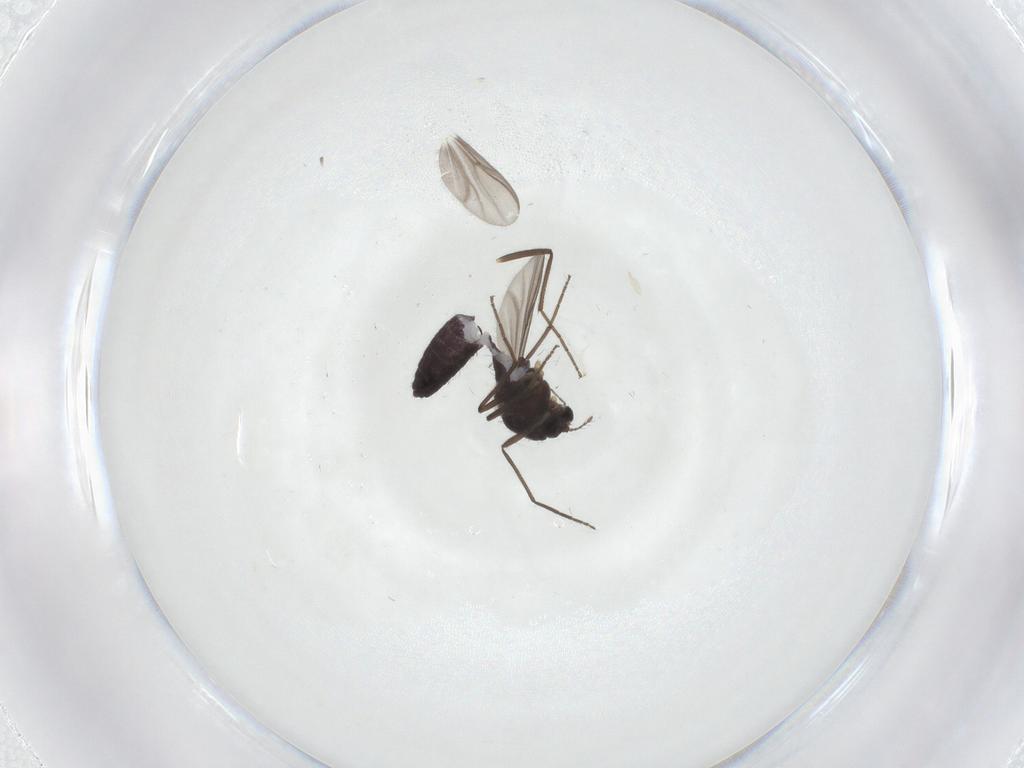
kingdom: Animalia
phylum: Arthropoda
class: Insecta
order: Diptera
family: Chironomidae
